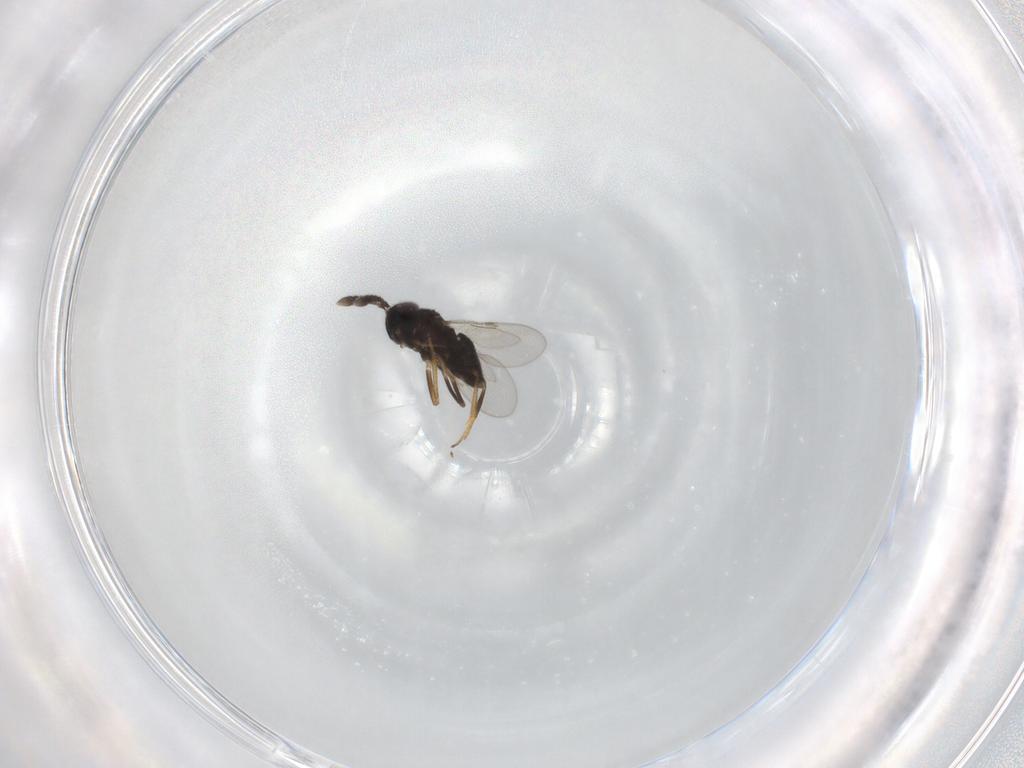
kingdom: Animalia
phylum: Arthropoda
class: Insecta
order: Hymenoptera
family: Encyrtidae
